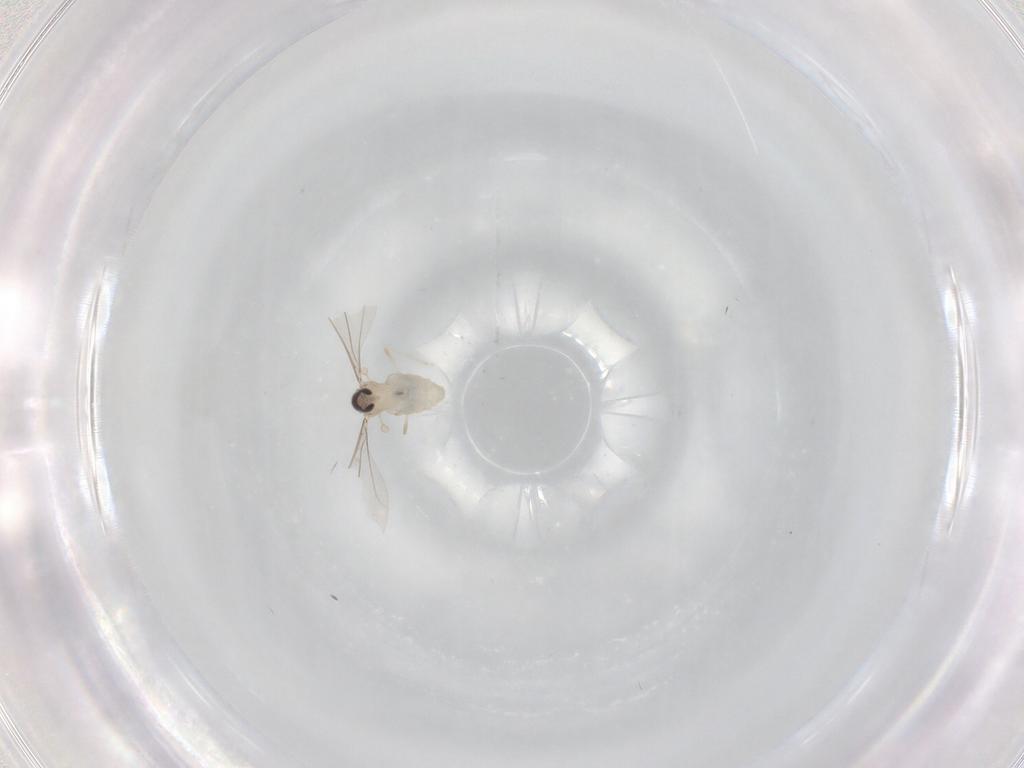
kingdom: Animalia
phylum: Arthropoda
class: Insecta
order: Diptera
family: Cecidomyiidae
